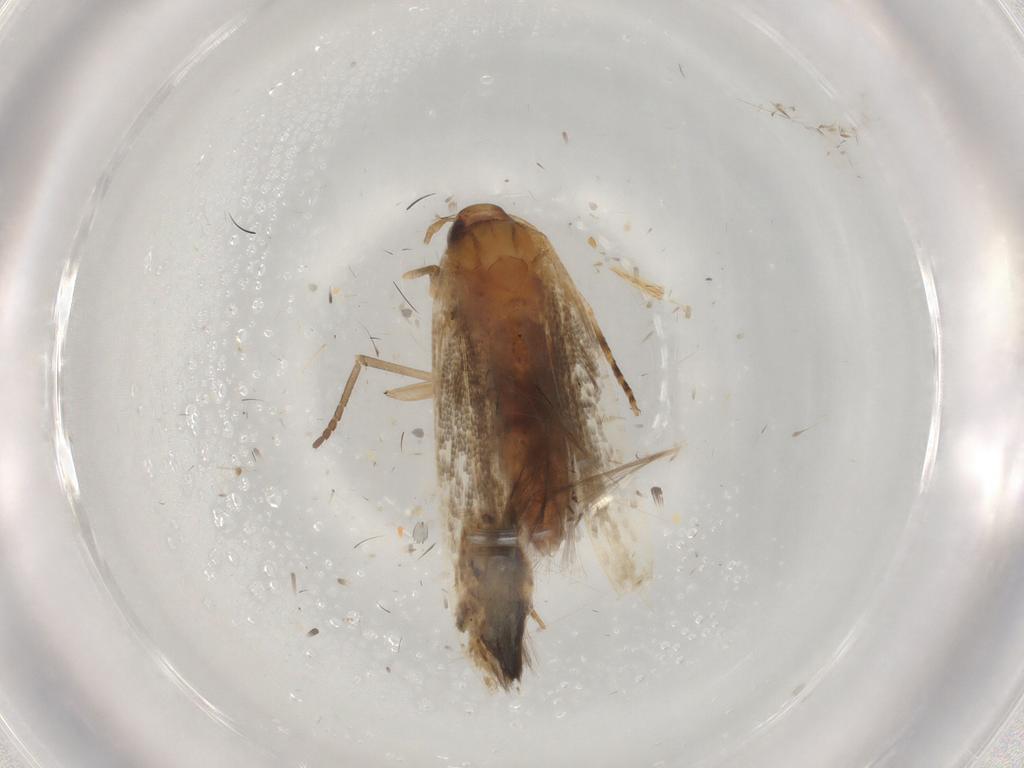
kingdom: Animalia
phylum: Arthropoda
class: Insecta
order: Lepidoptera
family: Cosmopterigidae
